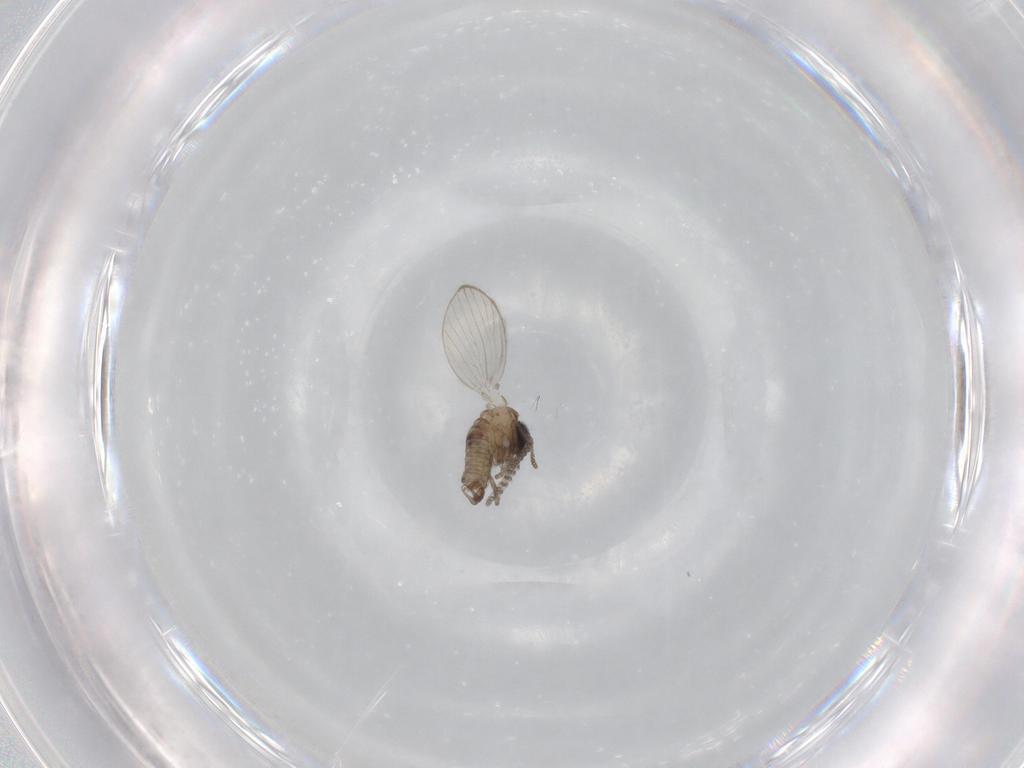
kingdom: Animalia
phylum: Arthropoda
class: Insecta
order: Diptera
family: Psychodidae
